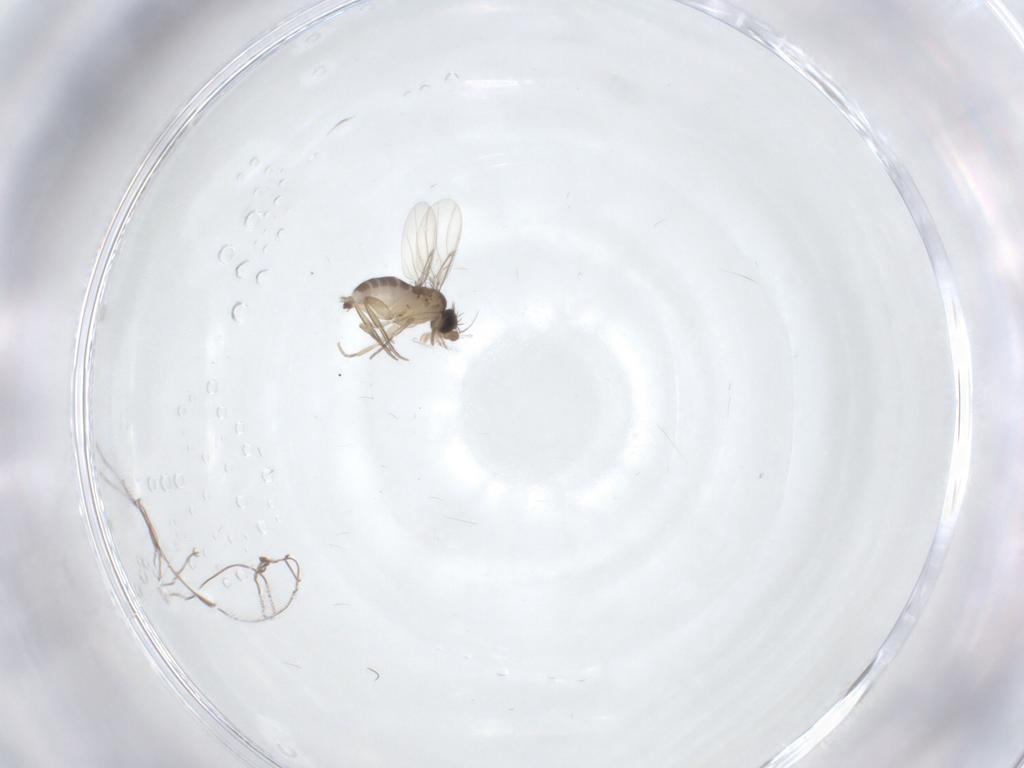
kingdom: Animalia
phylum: Arthropoda
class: Insecta
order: Diptera
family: Phoridae
